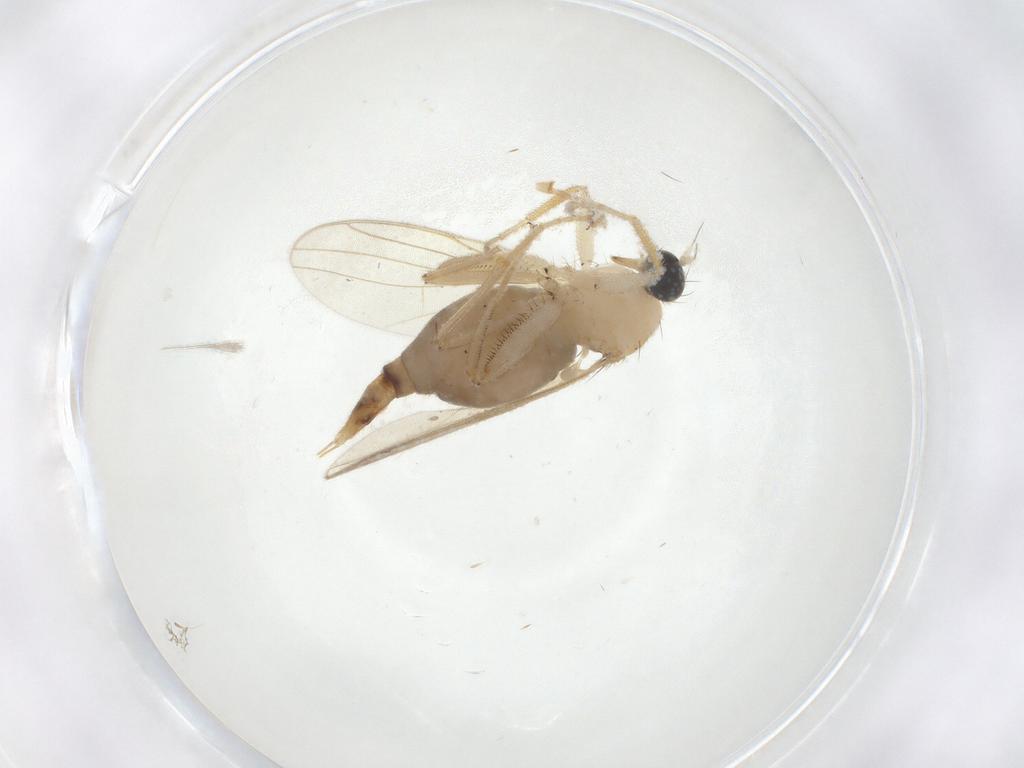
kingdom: Animalia
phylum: Arthropoda
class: Insecta
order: Diptera
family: Hybotidae
